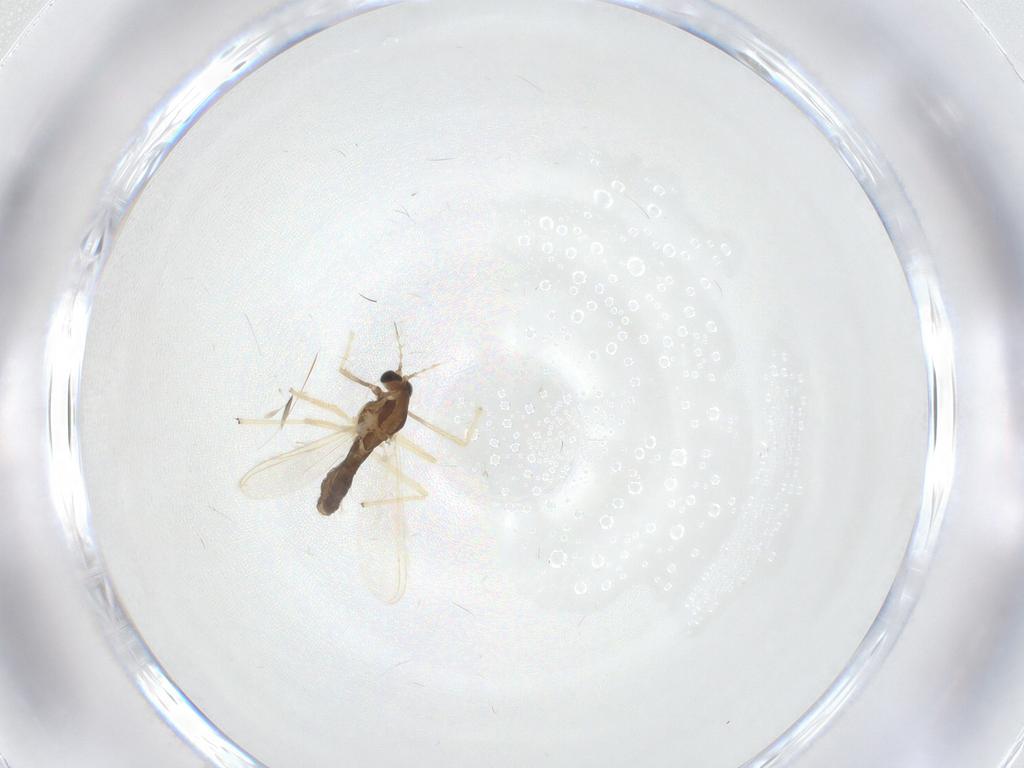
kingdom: Animalia
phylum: Arthropoda
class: Insecta
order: Diptera
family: Chironomidae
